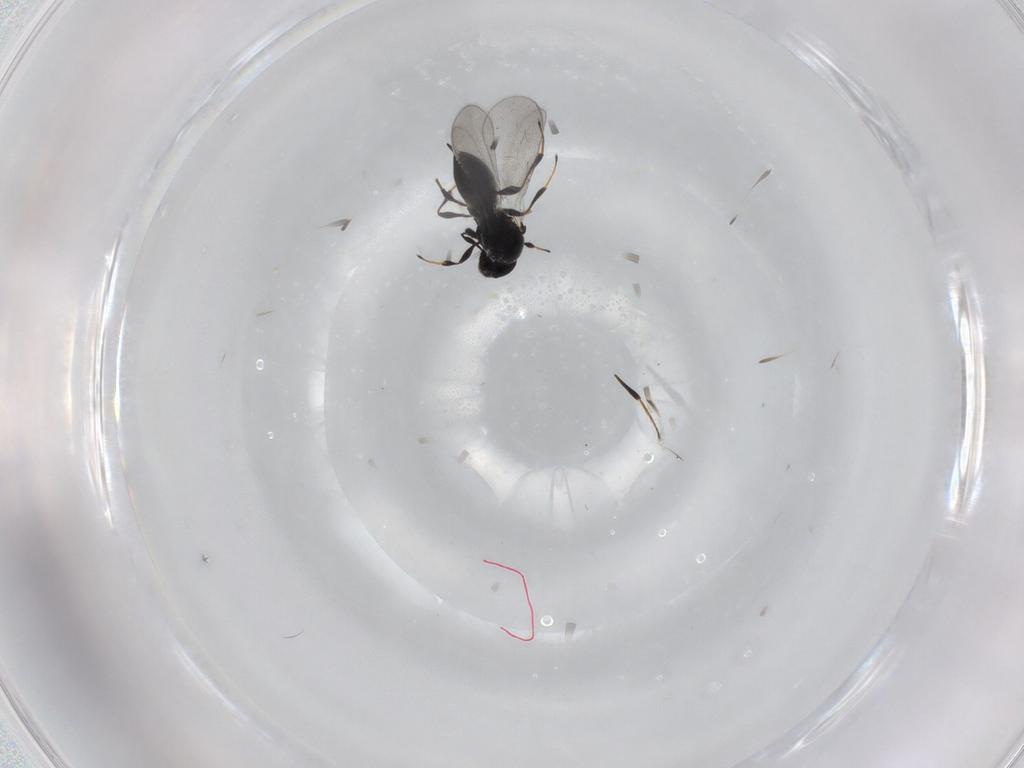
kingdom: Animalia
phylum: Arthropoda
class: Insecta
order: Hymenoptera
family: Platygastridae
